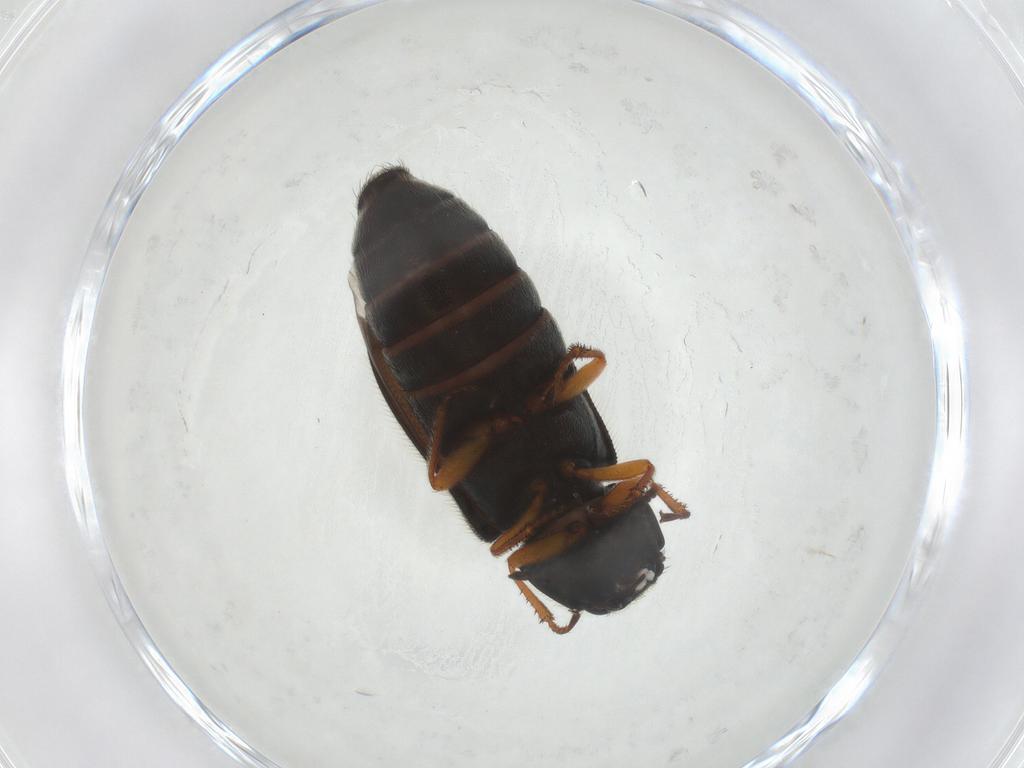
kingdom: Animalia
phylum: Arthropoda
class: Insecta
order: Coleoptera
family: Melyridae
